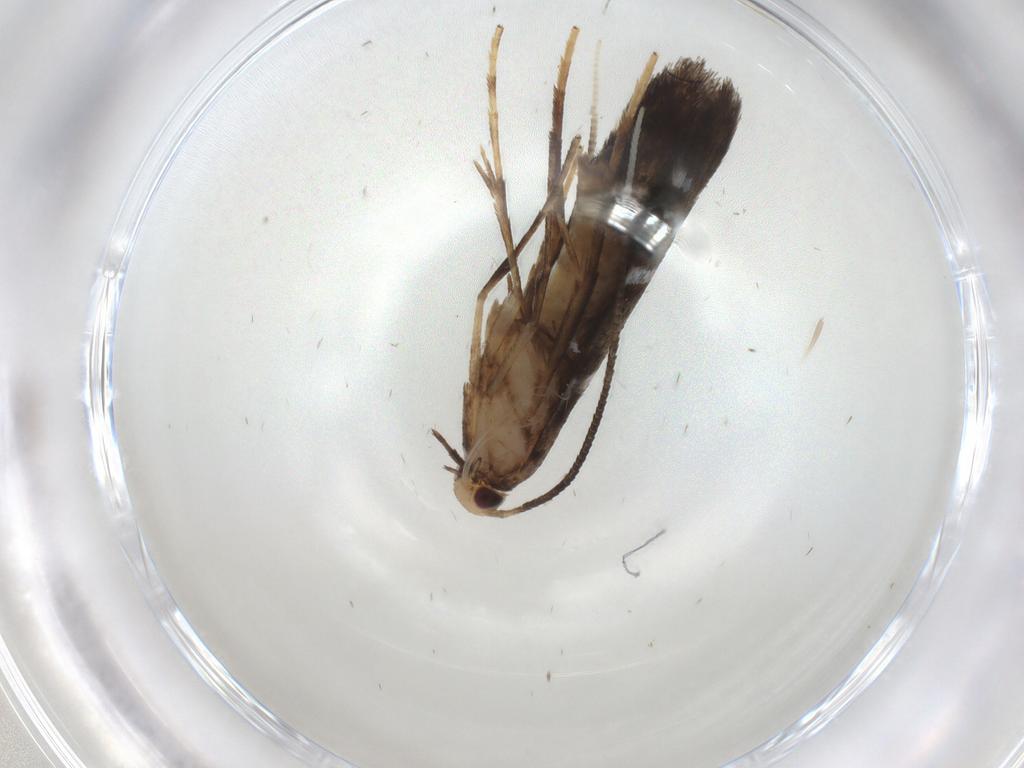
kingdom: Animalia
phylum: Arthropoda
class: Insecta
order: Lepidoptera
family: Gracillariidae
